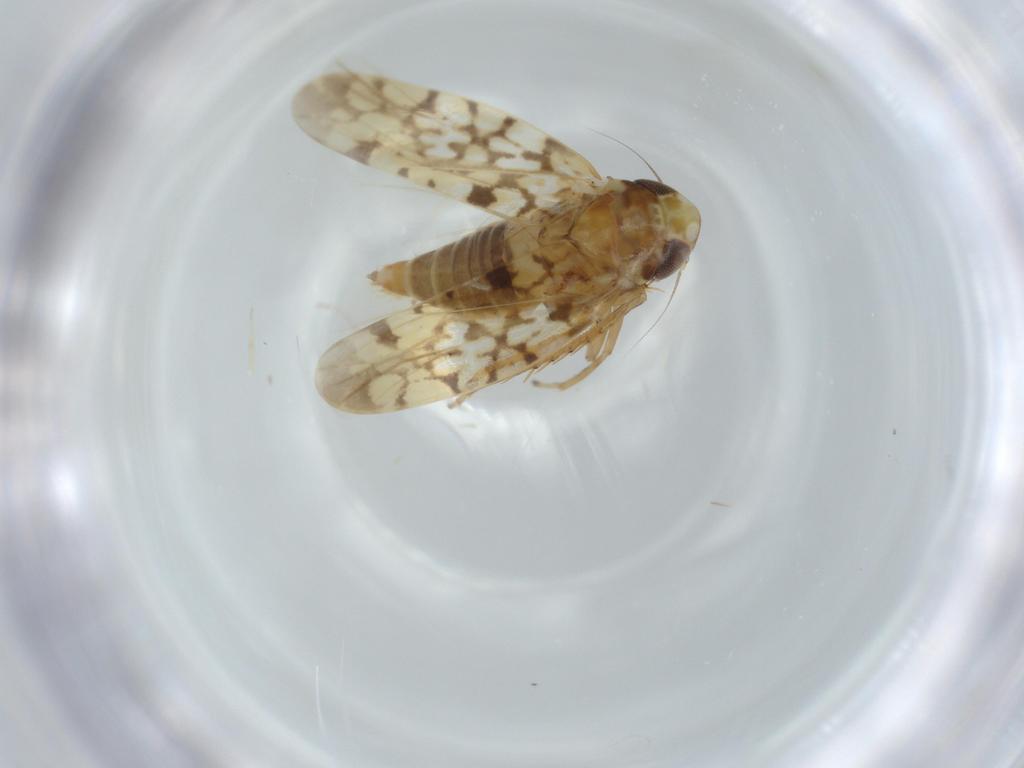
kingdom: Animalia
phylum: Arthropoda
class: Insecta
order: Hemiptera
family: Cicadellidae
